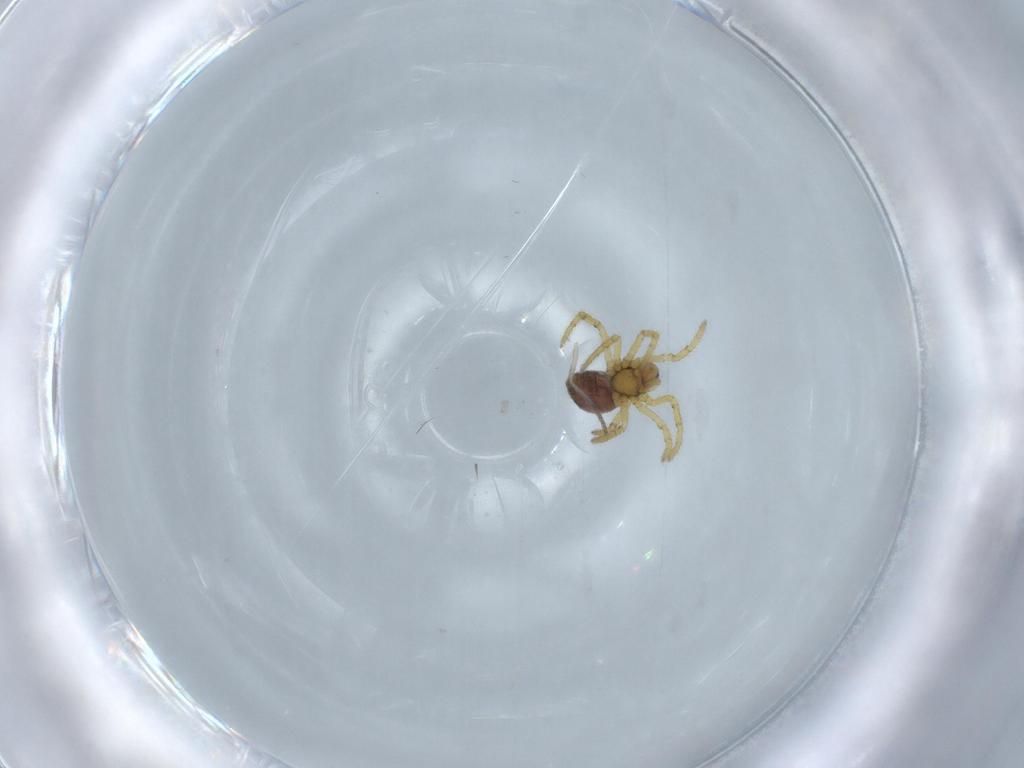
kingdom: Animalia
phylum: Arthropoda
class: Arachnida
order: Araneae
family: Theridiidae
